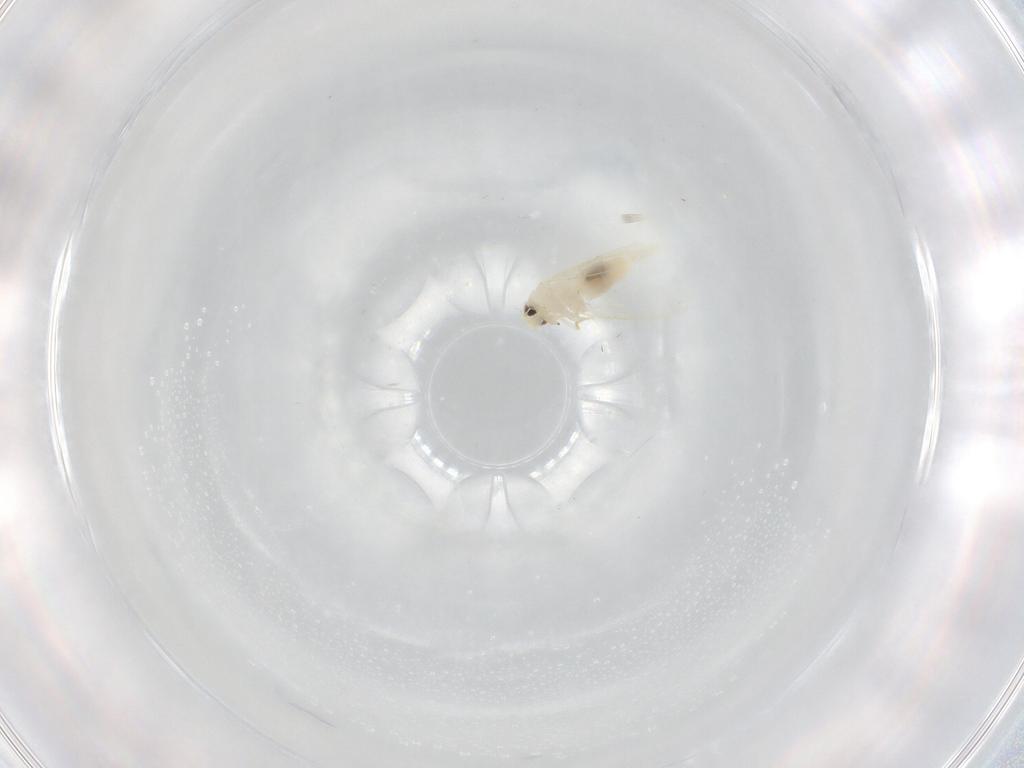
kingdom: Animalia
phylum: Arthropoda
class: Insecta
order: Hemiptera
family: Aleyrodidae
